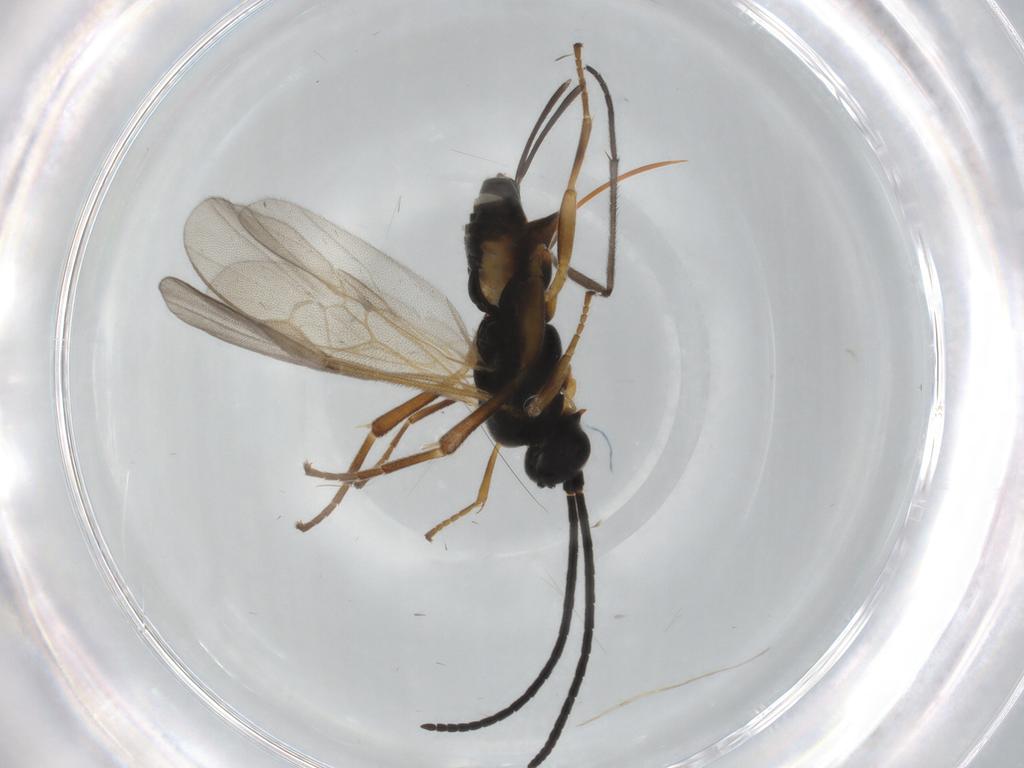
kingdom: Animalia
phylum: Arthropoda
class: Insecta
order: Hymenoptera
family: Braconidae
